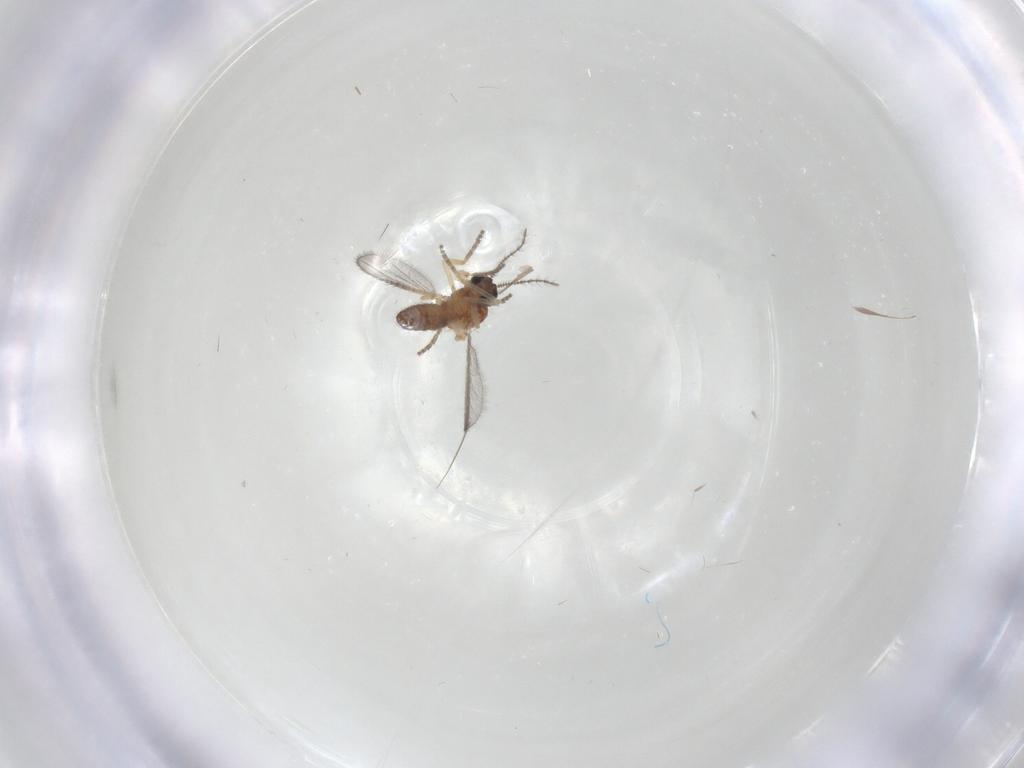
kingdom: Animalia
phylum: Arthropoda
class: Insecta
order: Diptera
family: Ceratopogonidae
